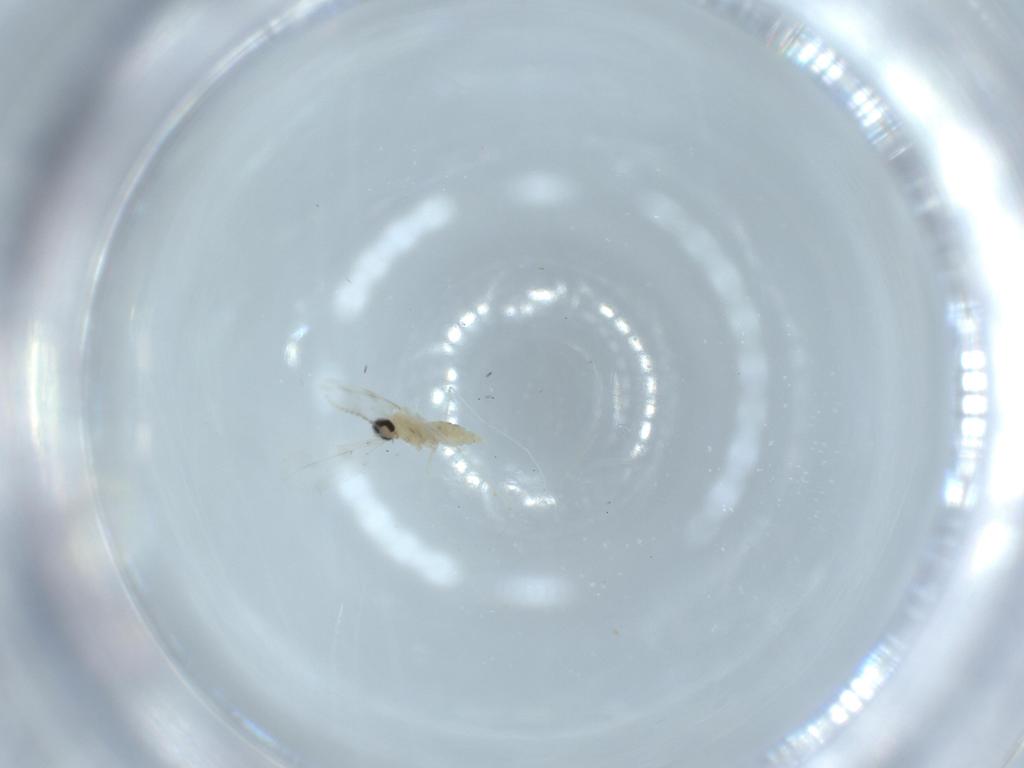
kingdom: Animalia
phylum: Arthropoda
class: Insecta
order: Diptera
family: Cecidomyiidae
